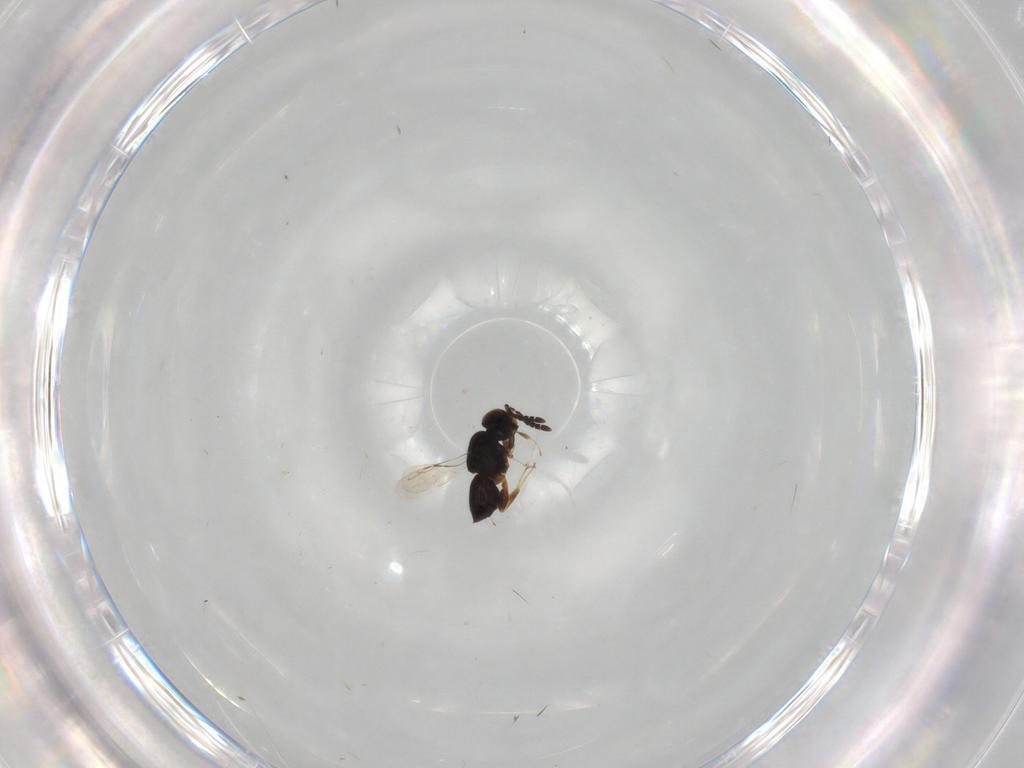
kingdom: Animalia
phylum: Arthropoda
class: Insecta
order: Hymenoptera
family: Ceraphronidae
